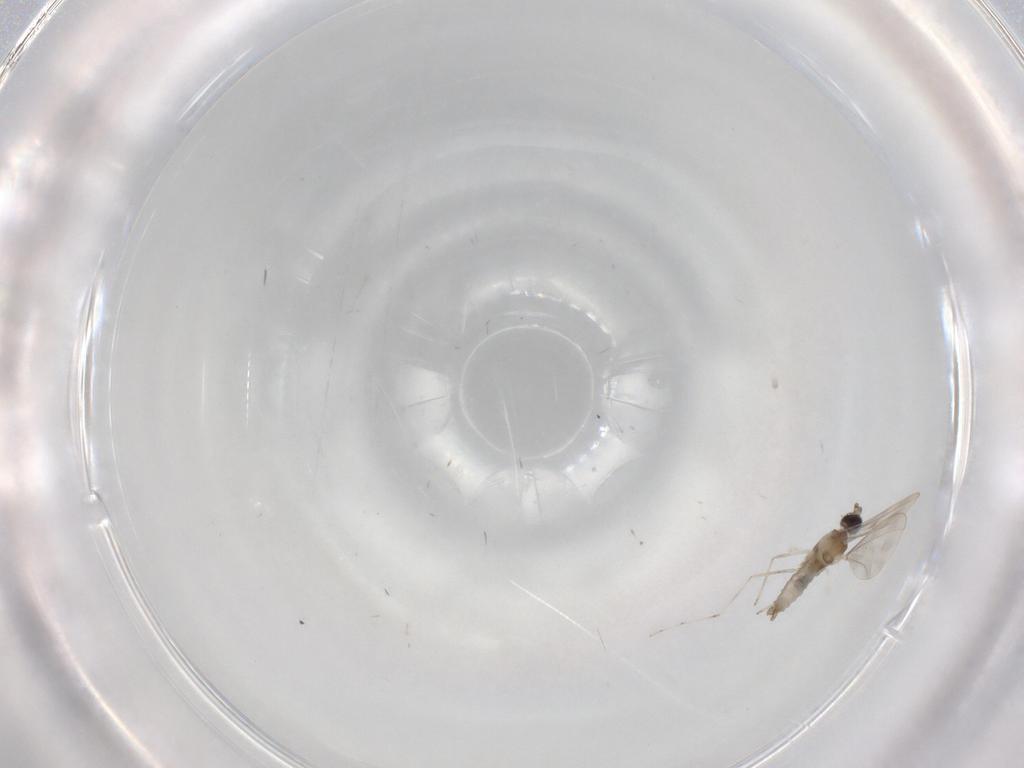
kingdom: Animalia
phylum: Arthropoda
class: Insecta
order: Diptera
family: Cecidomyiidae
